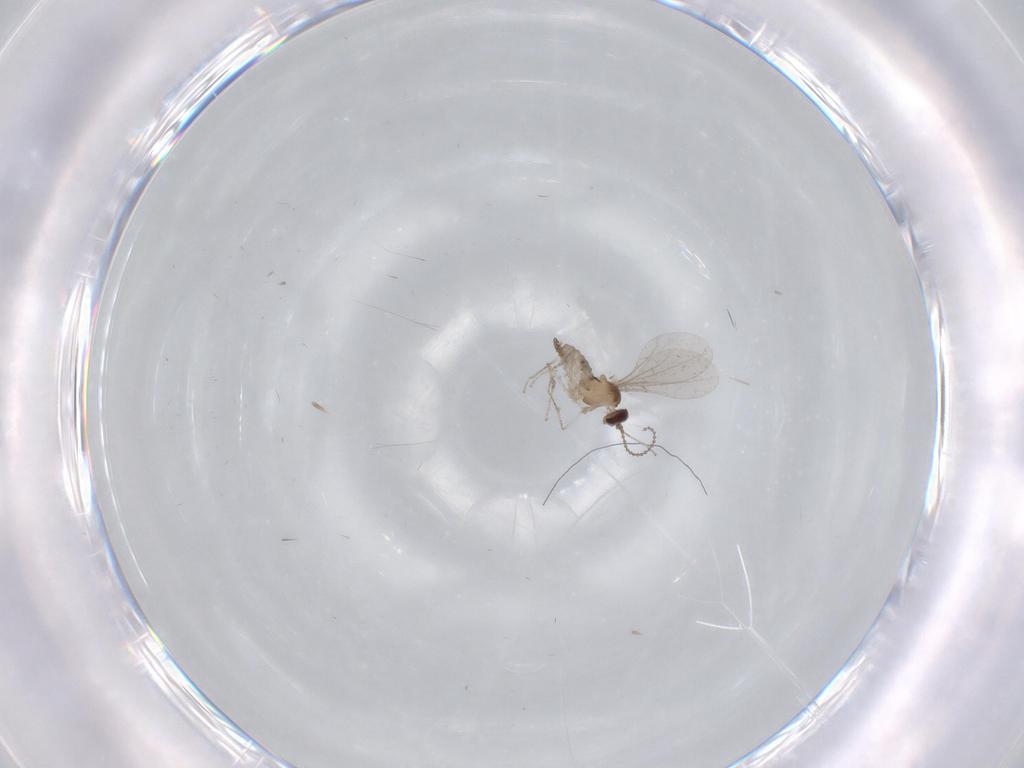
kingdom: Animalia
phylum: Arthropoda
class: Insecta
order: Diptera
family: Cecidomyiidae
